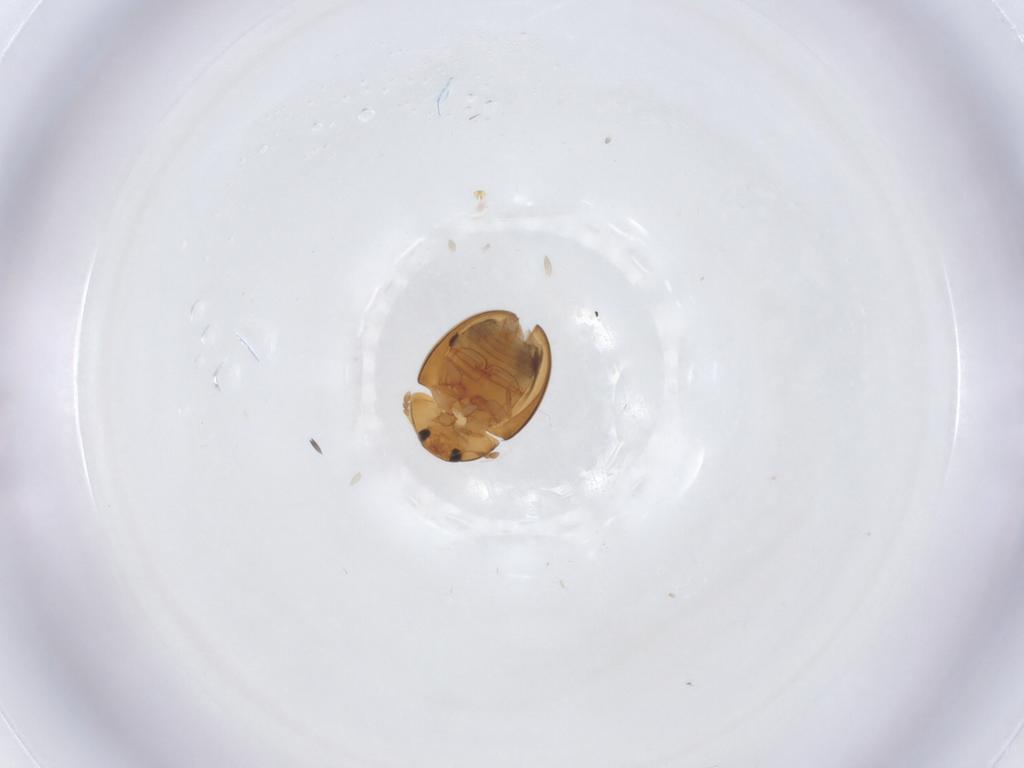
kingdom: Animalia
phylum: Arthropoda
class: Insecta
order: Coleoptera
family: Phalacridae
